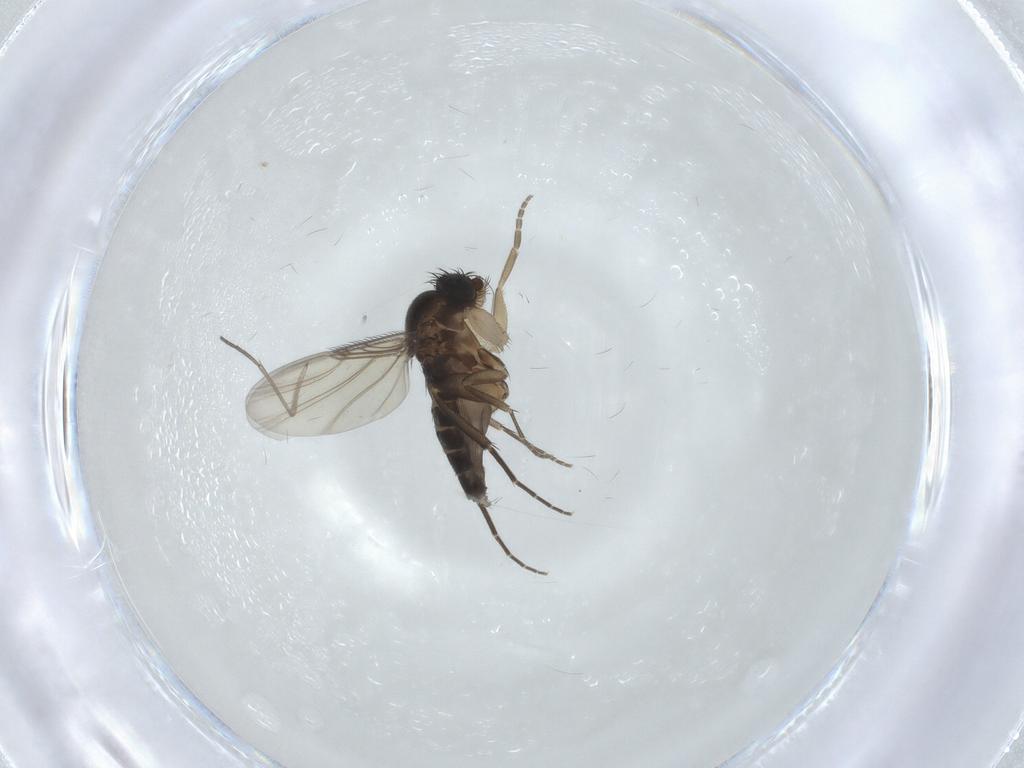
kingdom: Animalia
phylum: Arthropoda
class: Insecta
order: Diptera
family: Phoridae
